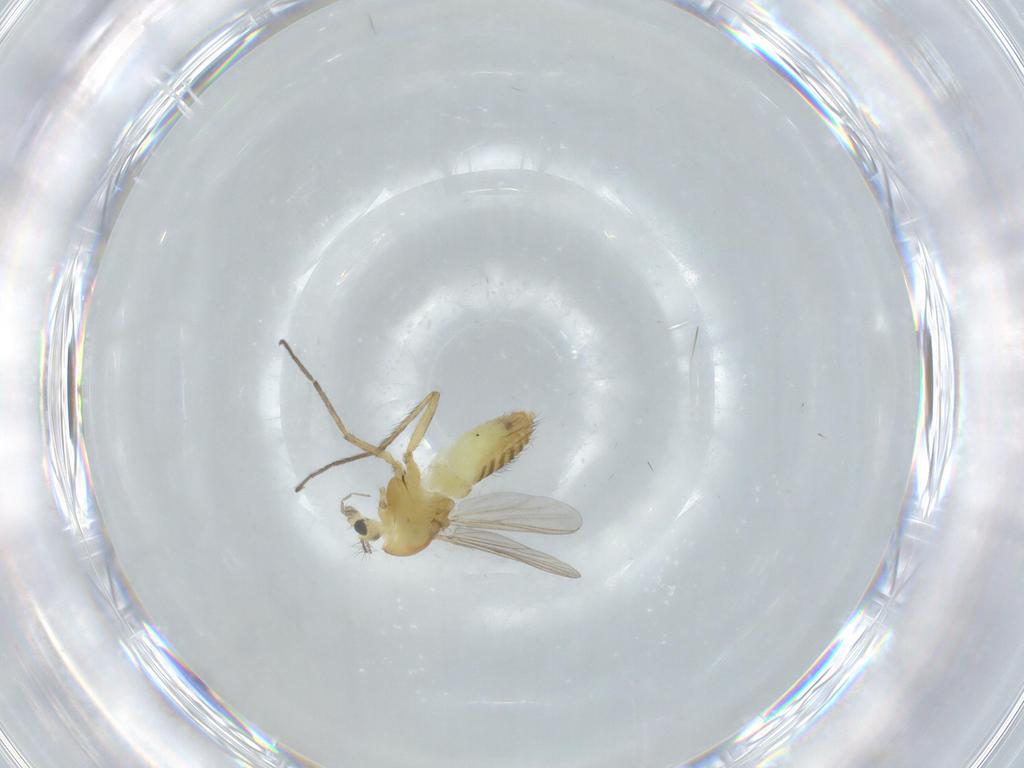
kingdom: Animalia
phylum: Arthropoda
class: Insecta
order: Diptera
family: Chironomidae
